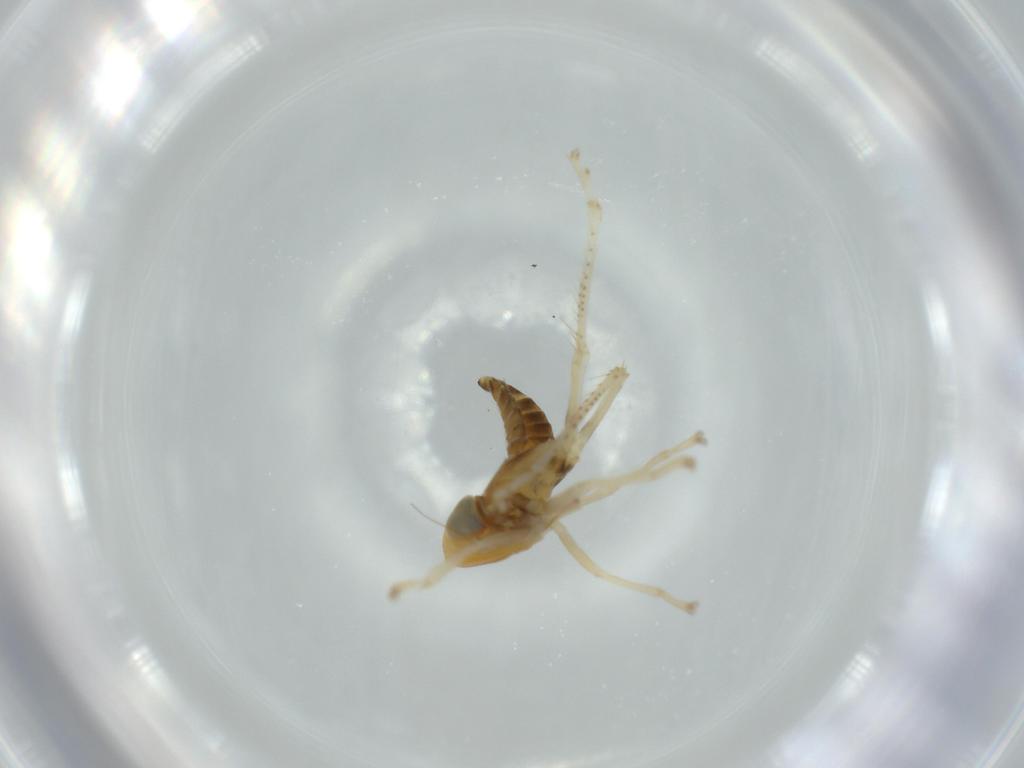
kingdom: Animalia
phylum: Arthropoda
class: Insecta
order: Hemiptera
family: Cicadellidae
